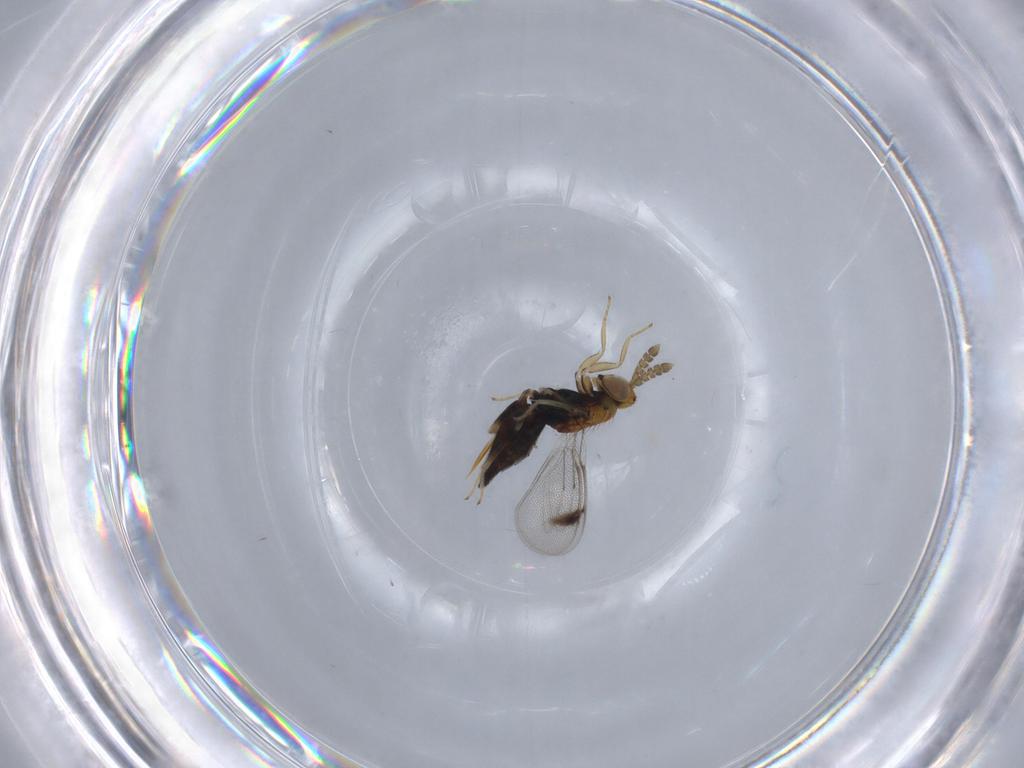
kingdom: Animalia
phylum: Arthropoda
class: Insecta
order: Hymenoptera
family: Eulophidae
